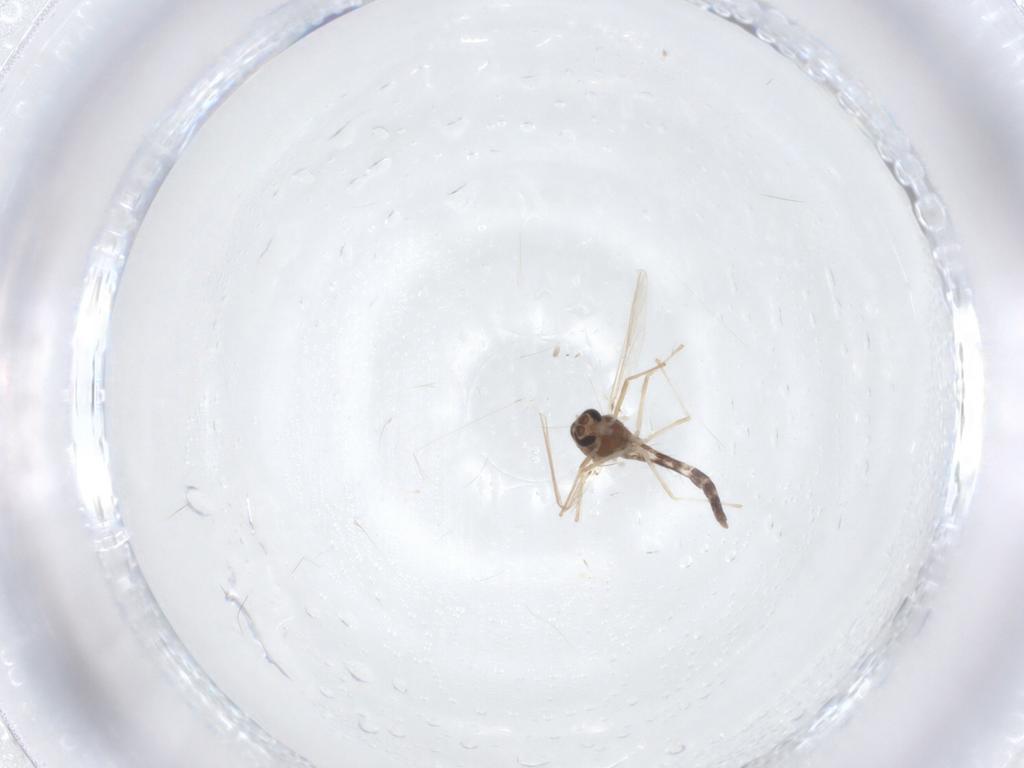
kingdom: Animalia
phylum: Arthropoda
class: Insecta
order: Diptera
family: Chironomidae
